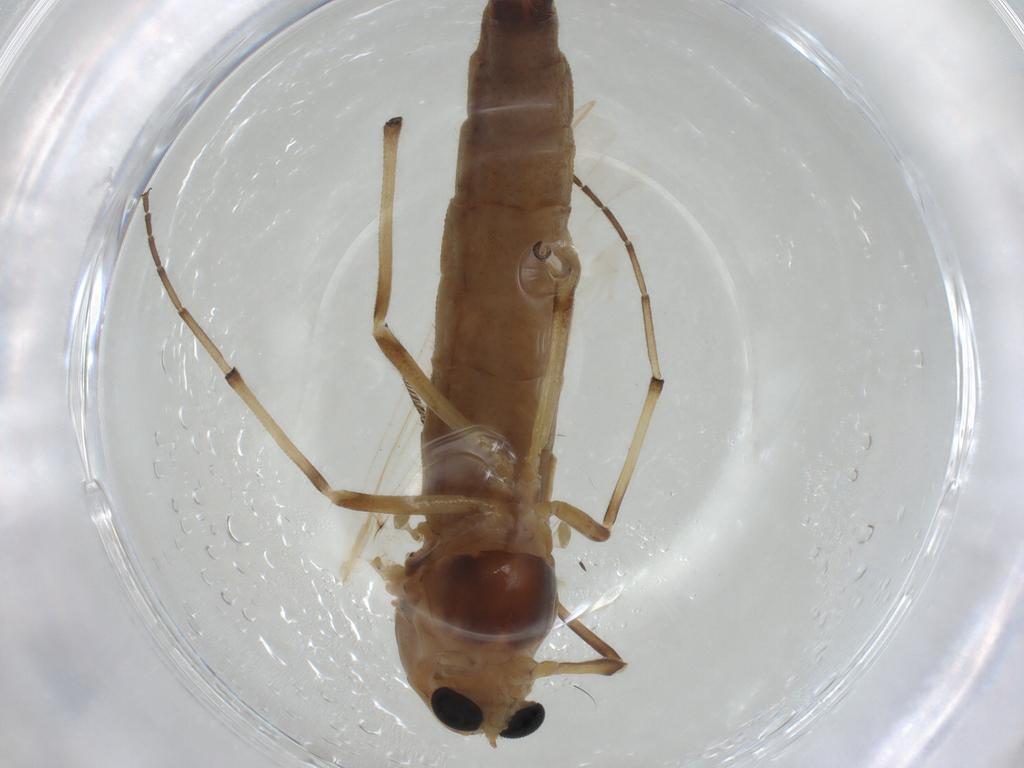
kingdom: Animalia
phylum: Arthropoda
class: Insecta
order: Diptera
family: Chironomidae
